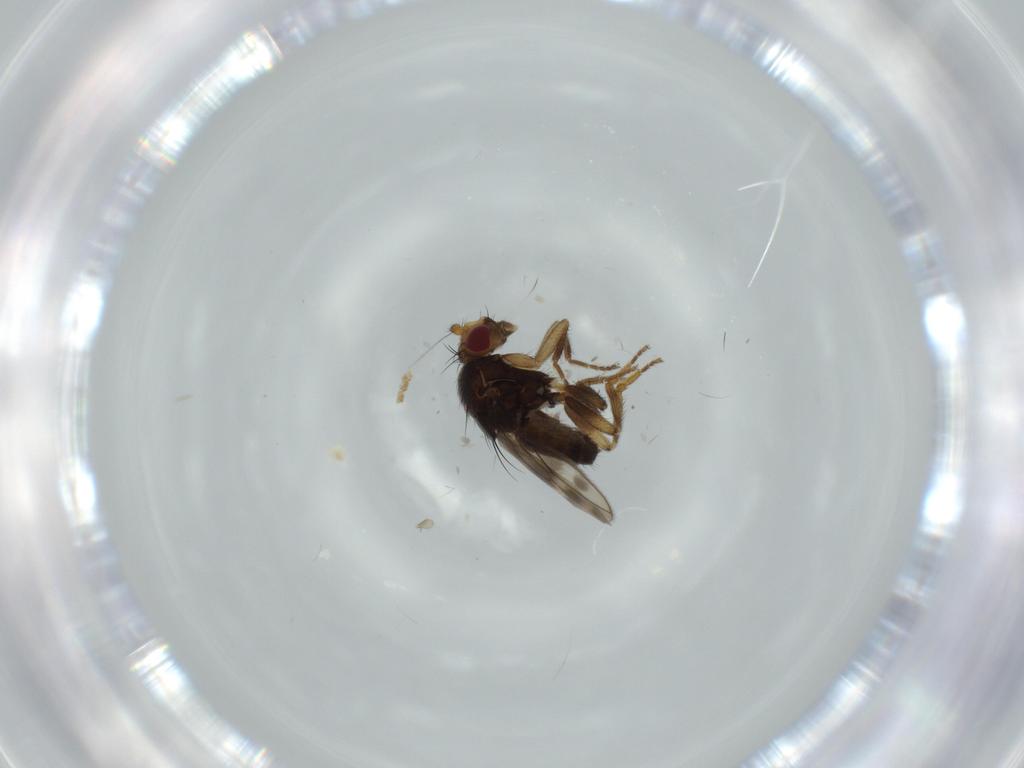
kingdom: Animalia
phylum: Arthropoda
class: Insecta
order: Diptera
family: Sphaeroceridae
